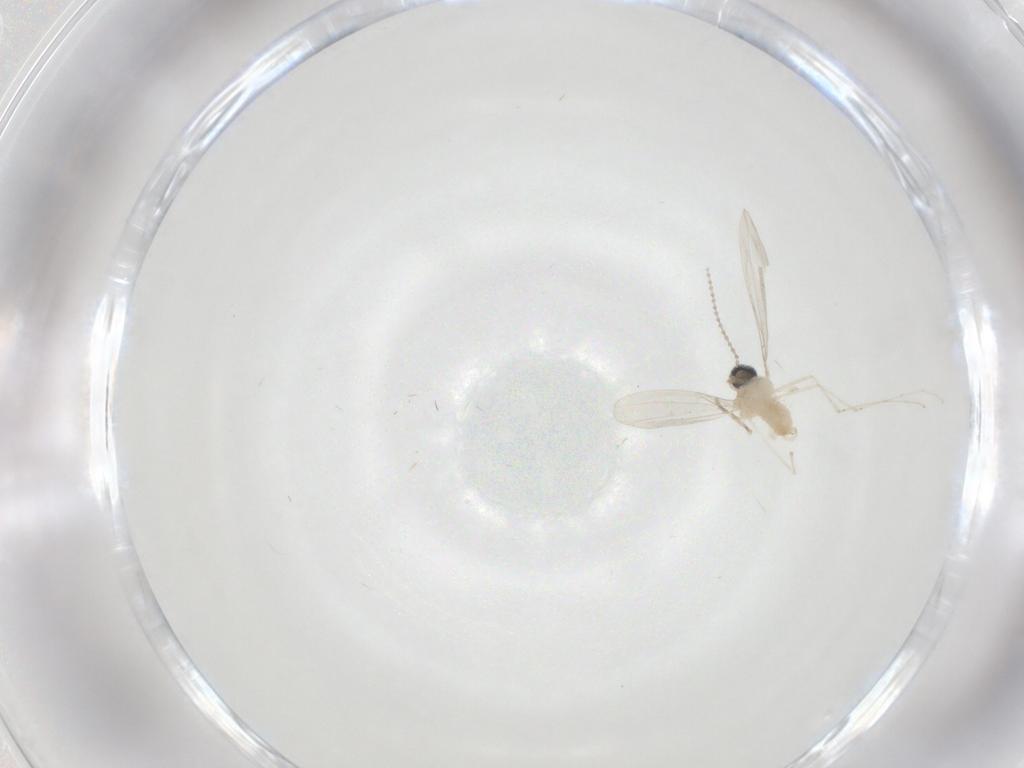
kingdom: Animalia
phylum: Arthropoda
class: Insecta
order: Diptera
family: Cecidomyiidae
